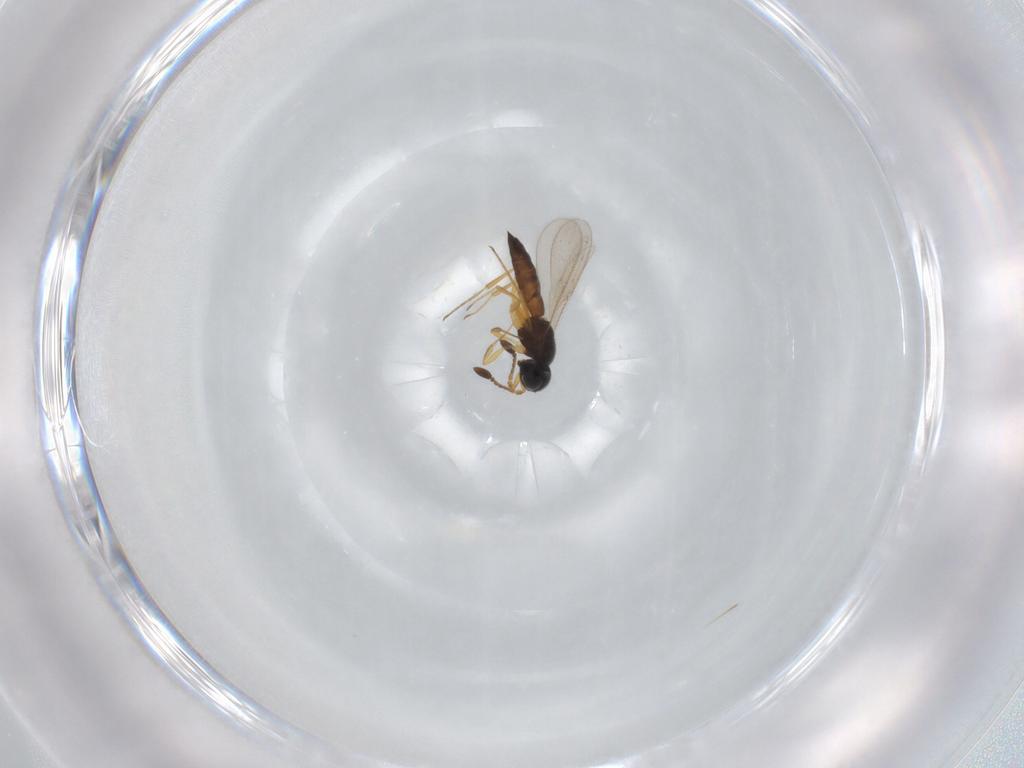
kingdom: Animalia
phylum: Arthropoda
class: Insecta
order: Hymenoptera
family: Scelionidae
